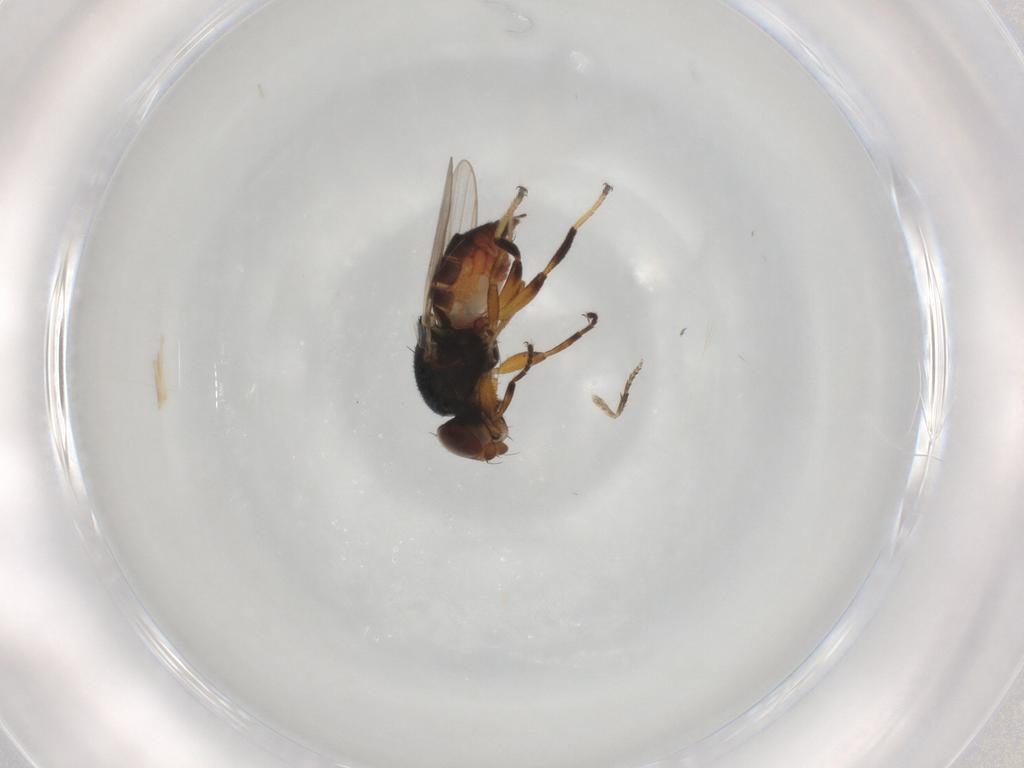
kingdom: Animalia
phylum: Arthropoda
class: Insecta
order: Diptera
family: Chloropidae
